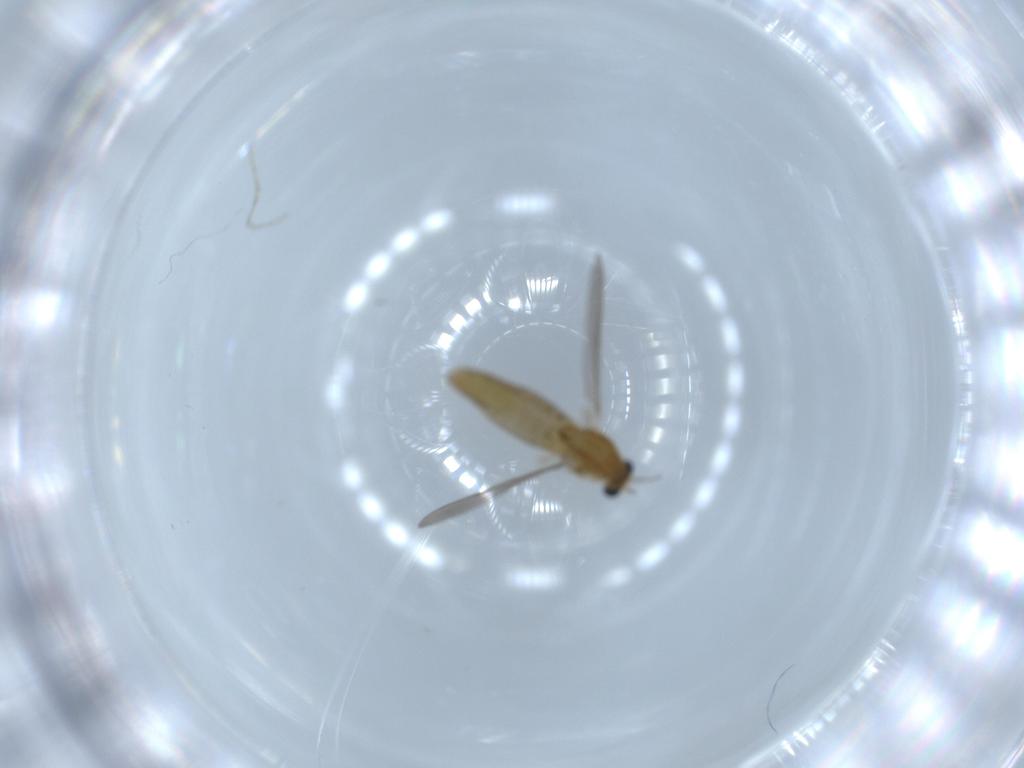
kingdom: Animalia
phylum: Arthropoda
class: Insecta
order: Diptera
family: Chironomidae
